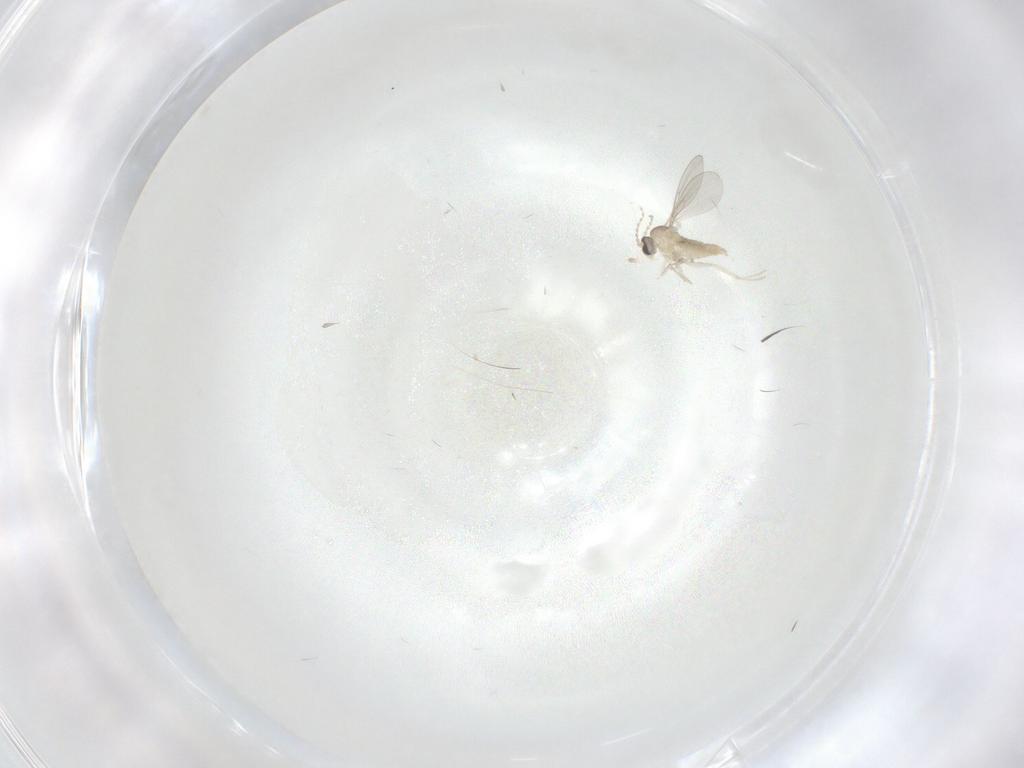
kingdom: Animalia
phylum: Arthropoda
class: Insecta
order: Diptera
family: Cecidomyiidae
